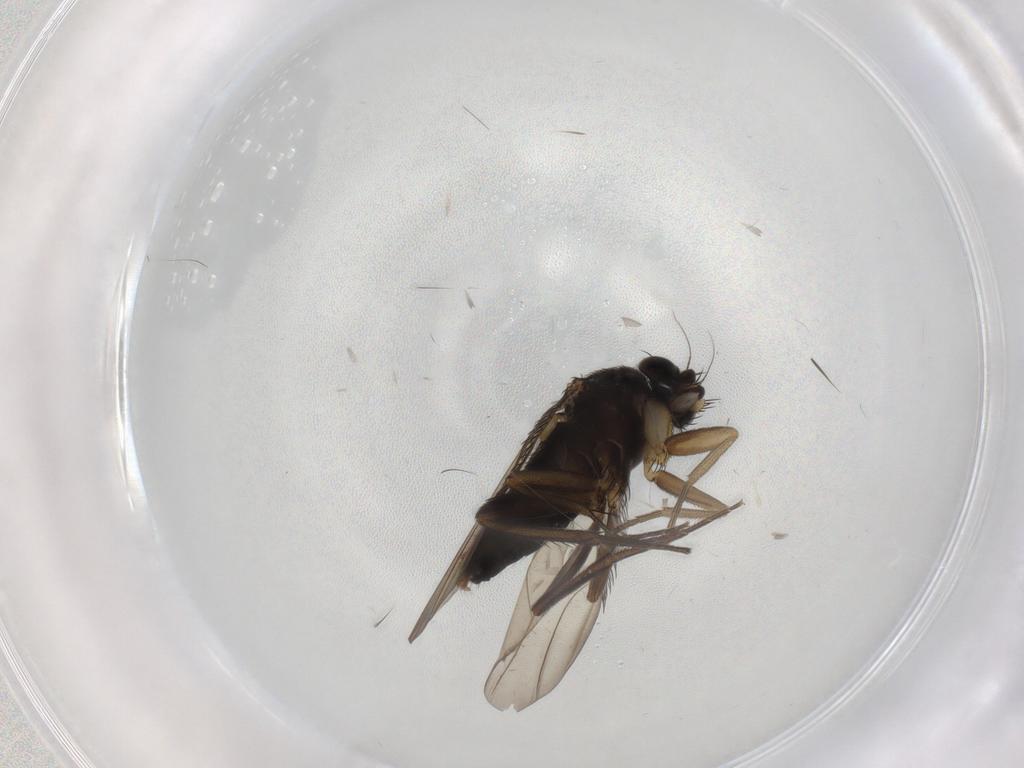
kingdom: Animalia
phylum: Arthropoda
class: Insecta
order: Diptera
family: Phoridae
